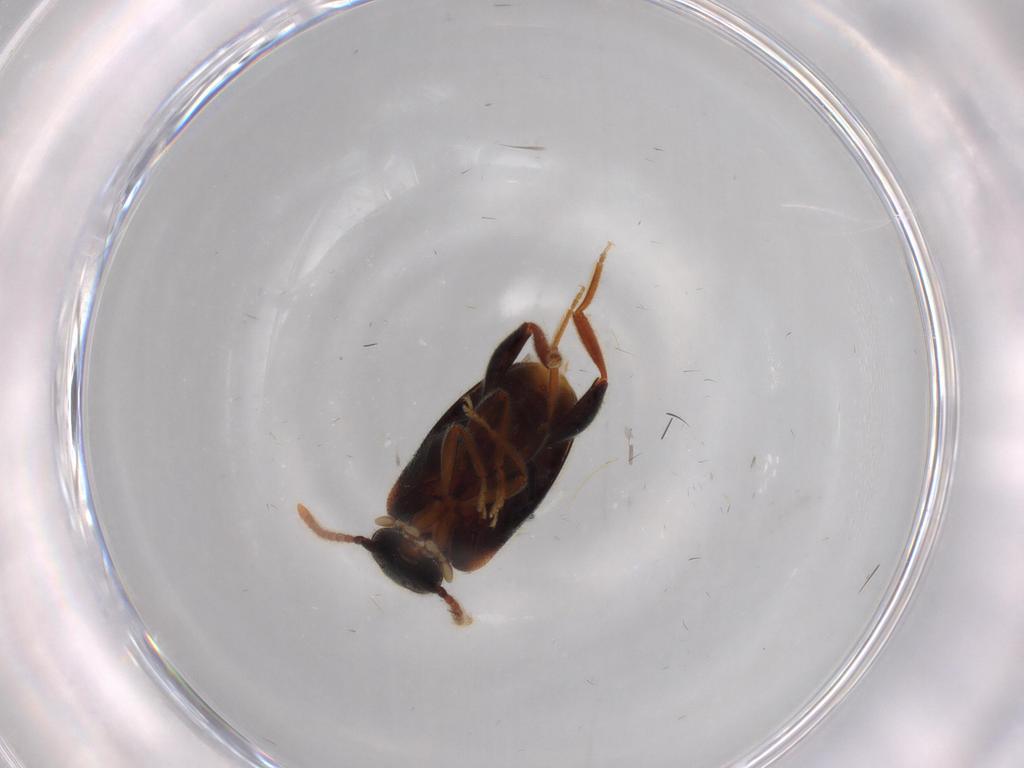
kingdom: Animalia
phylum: Arthropoda
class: Insecta
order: Coleoptera
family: Aderidae
